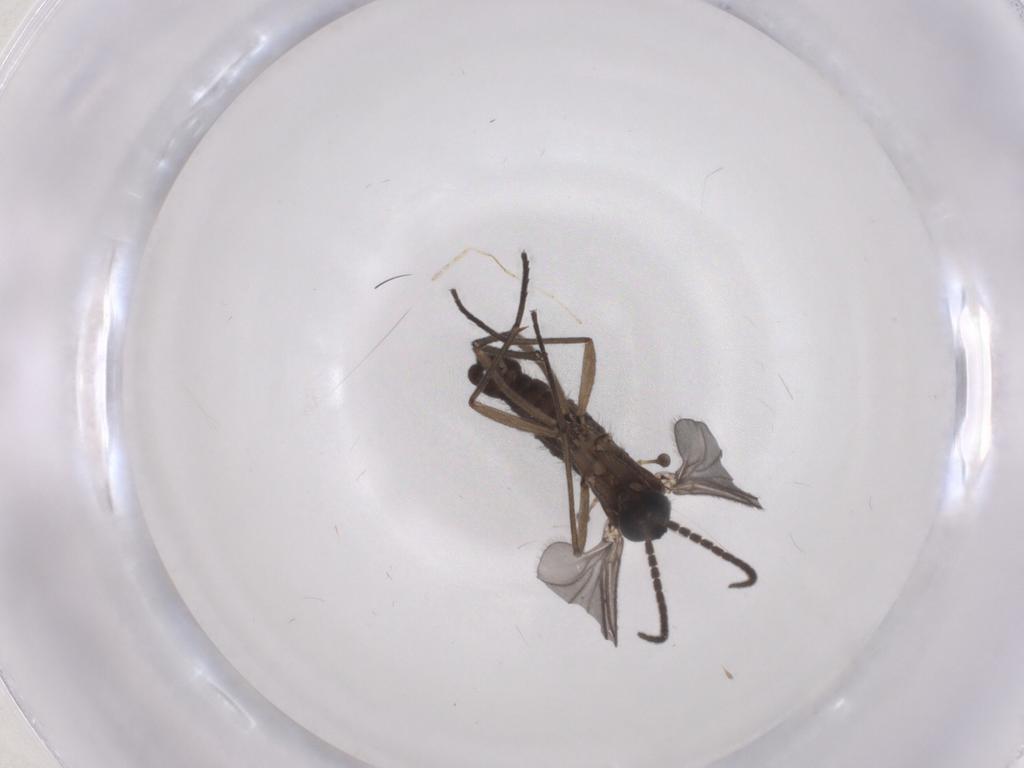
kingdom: Animalia
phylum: Arthropoda
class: Insecta
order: Diptera
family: Sciaridae
